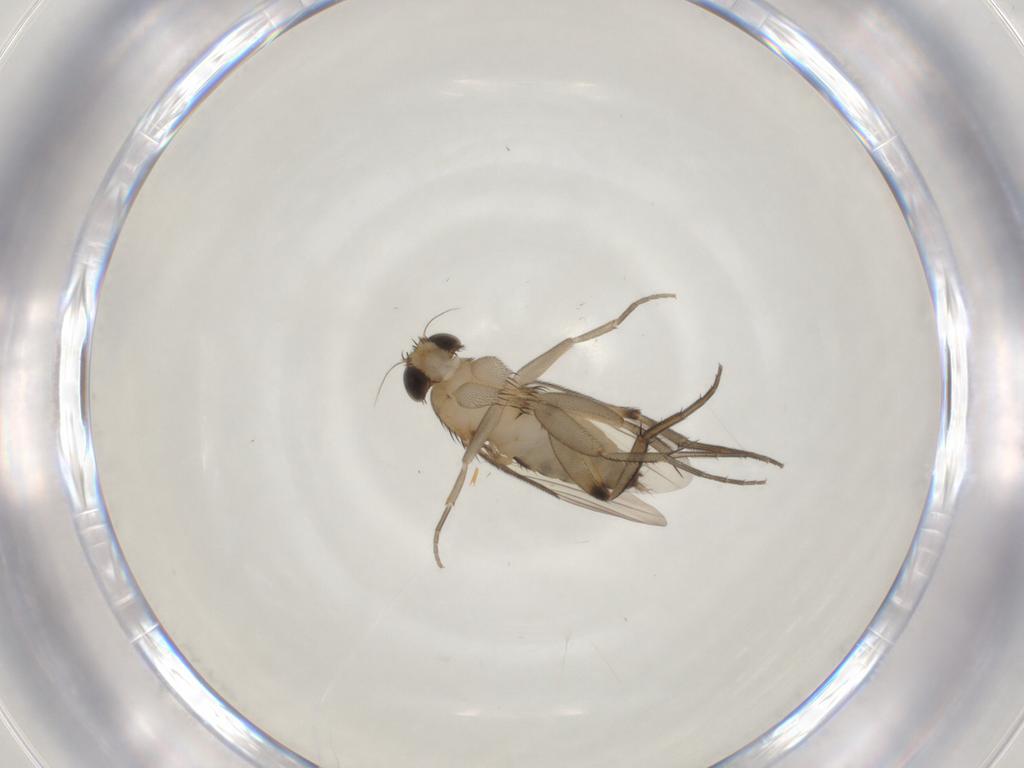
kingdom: Animalia
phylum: Arthropoda
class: Insecta
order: Diptera
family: Phoridae
